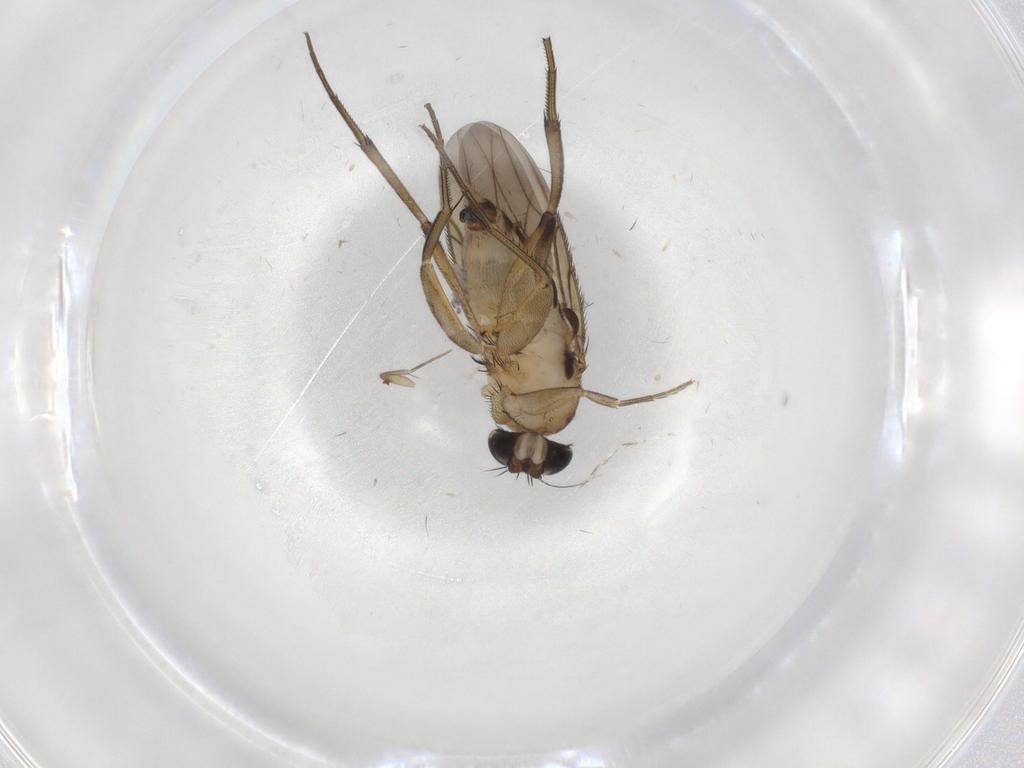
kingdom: Animalia
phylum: Arthropoda
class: Insecta
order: Diptera
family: Phoridae
